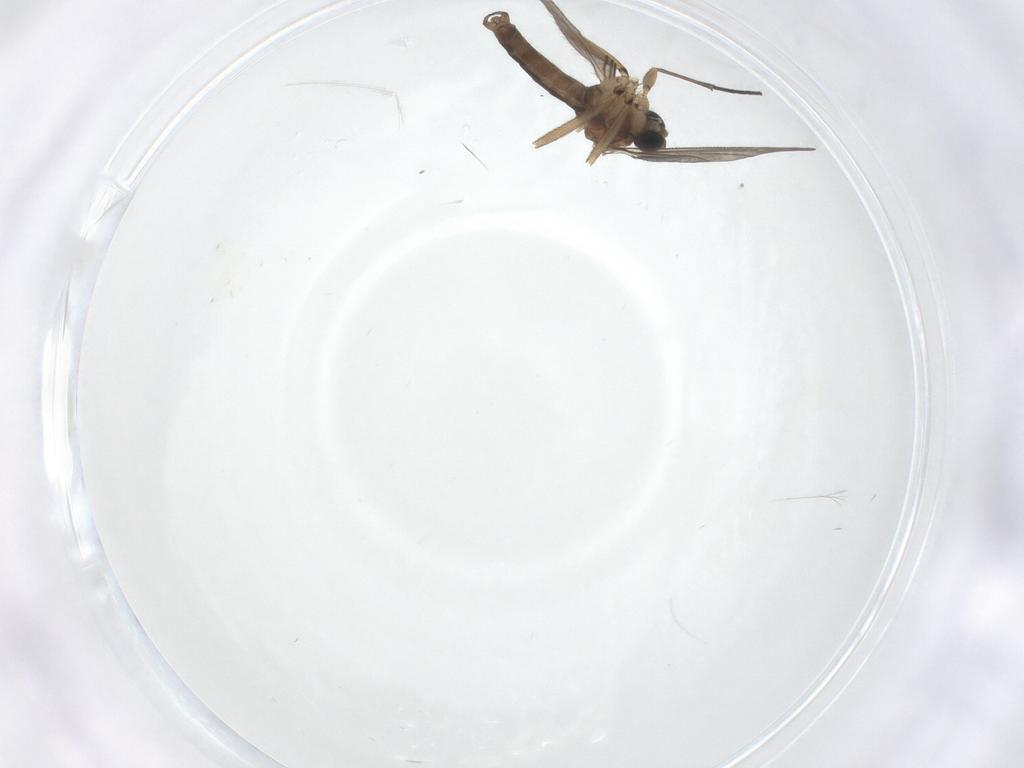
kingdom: Animalia
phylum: Arthropoda
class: Insecta
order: Diptera
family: Sciaridae
